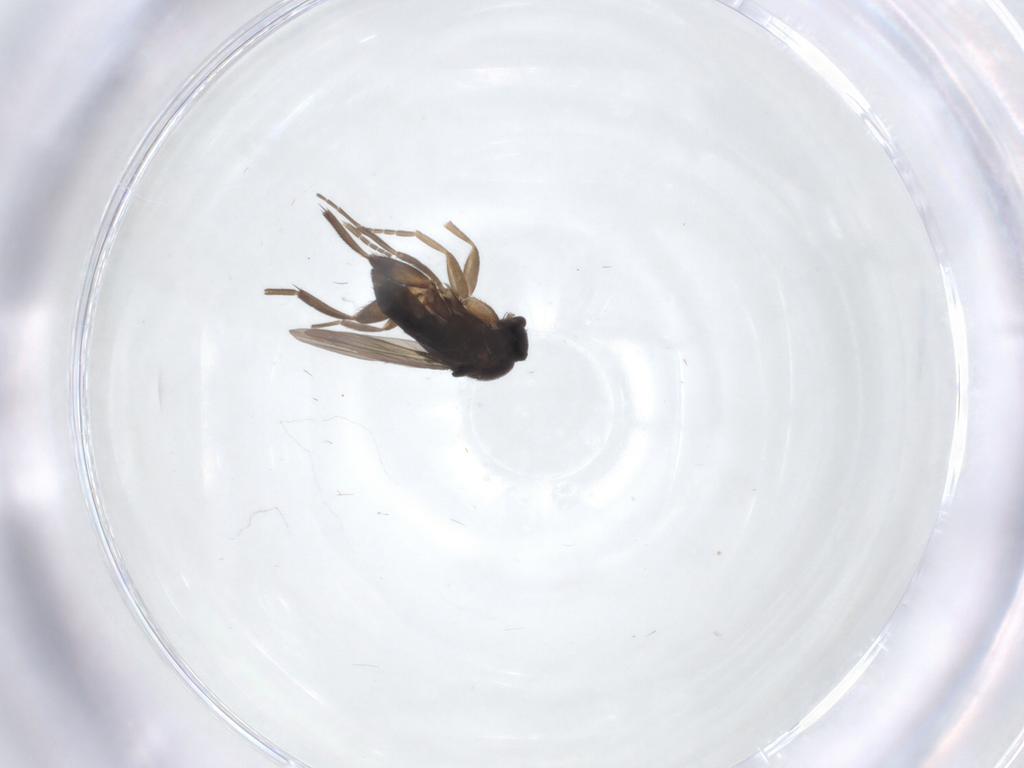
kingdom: Animalia
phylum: Arthropoda
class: Insecta
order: Diptera
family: Phoridae
